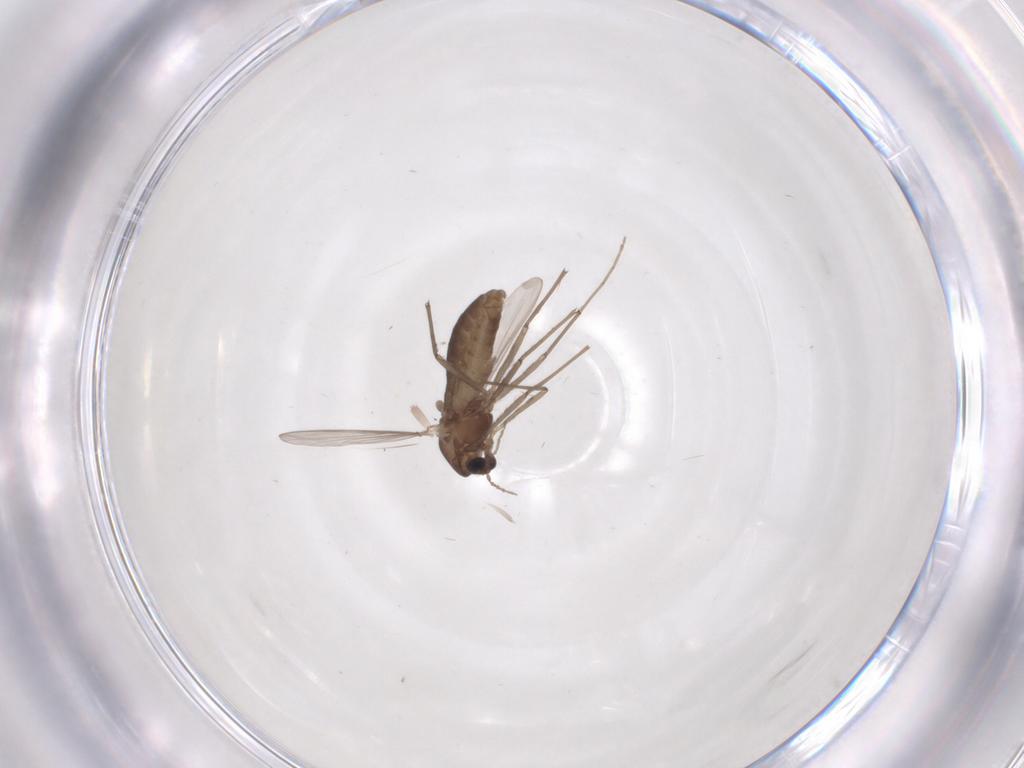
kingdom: Animalia
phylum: Arthropoda
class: Insecta
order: Diptera
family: Chironomidae
